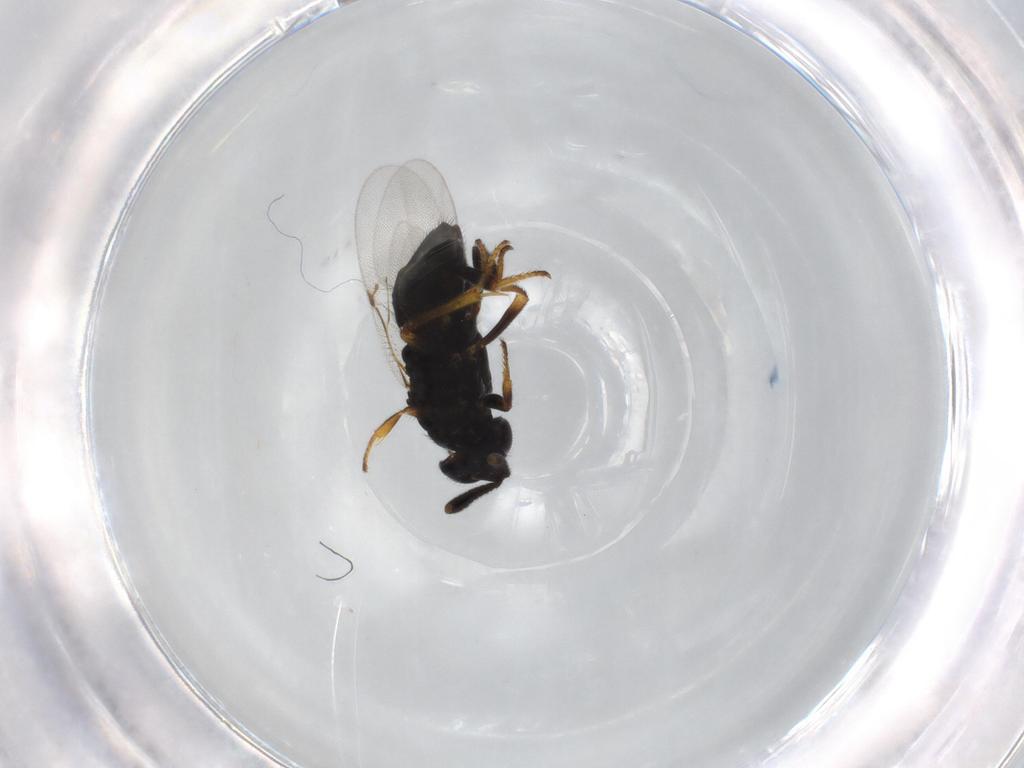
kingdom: Animalia
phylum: Arthropoda
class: Insecta
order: Hymenoptera
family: Encyrtidae
